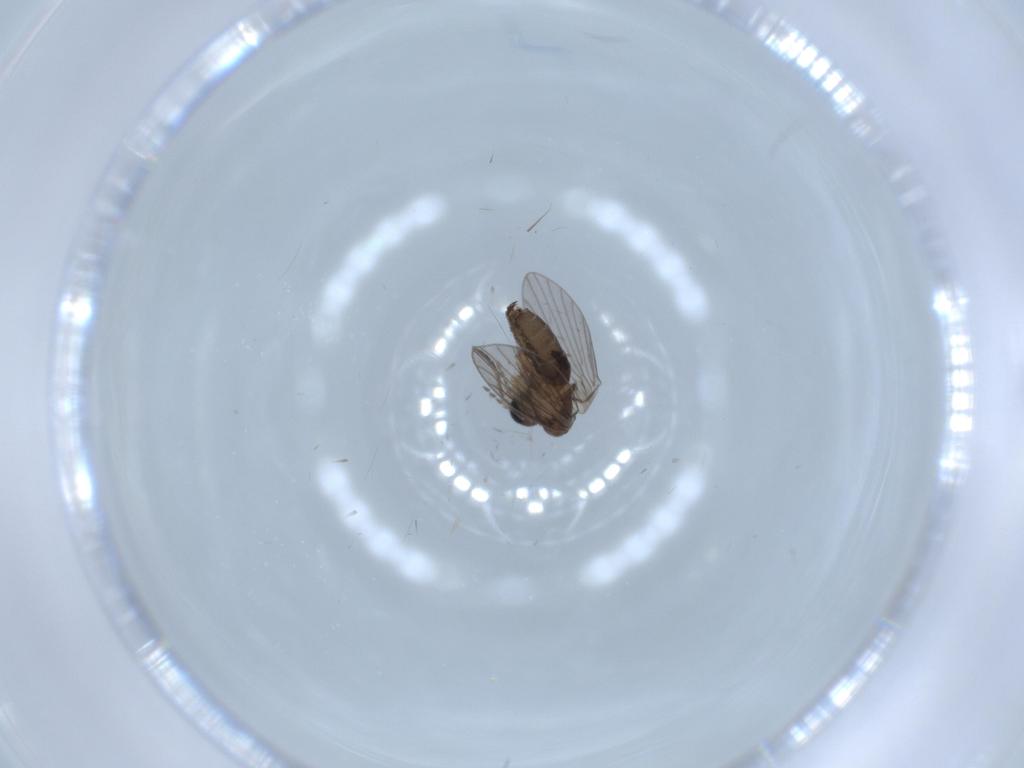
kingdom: Animalia
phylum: Arthropoda
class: Insecta
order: Diptera
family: Psychodidae
